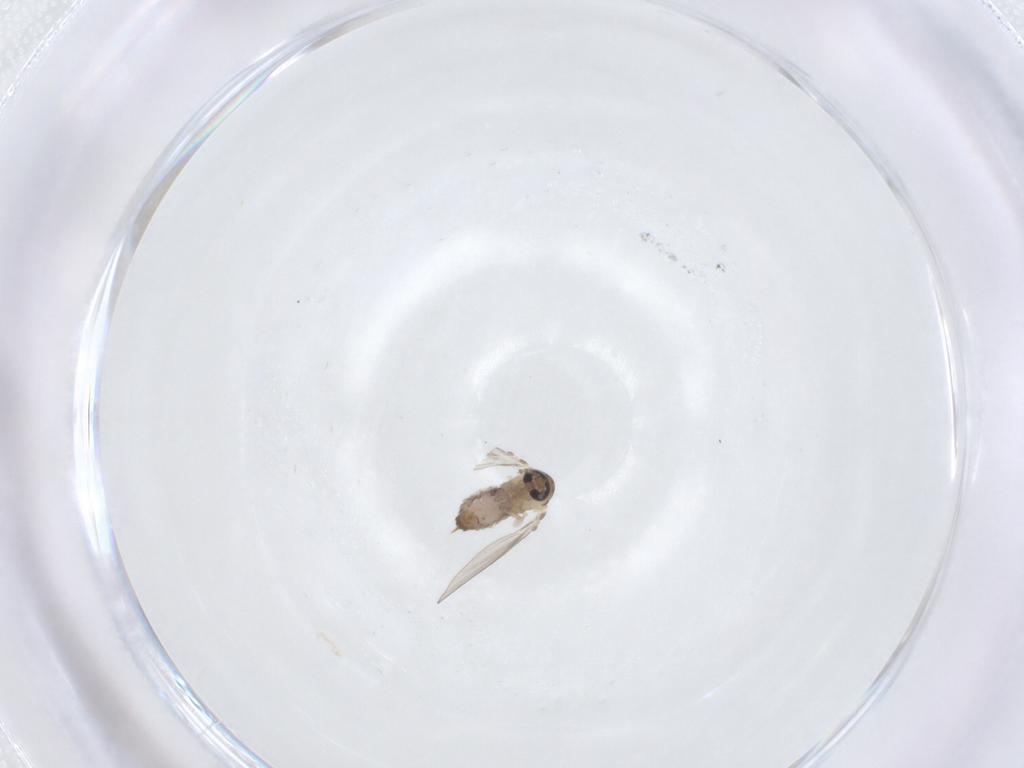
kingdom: Animalia
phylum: Arthropoda
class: Insecta
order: Diptera
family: Psychodidae
